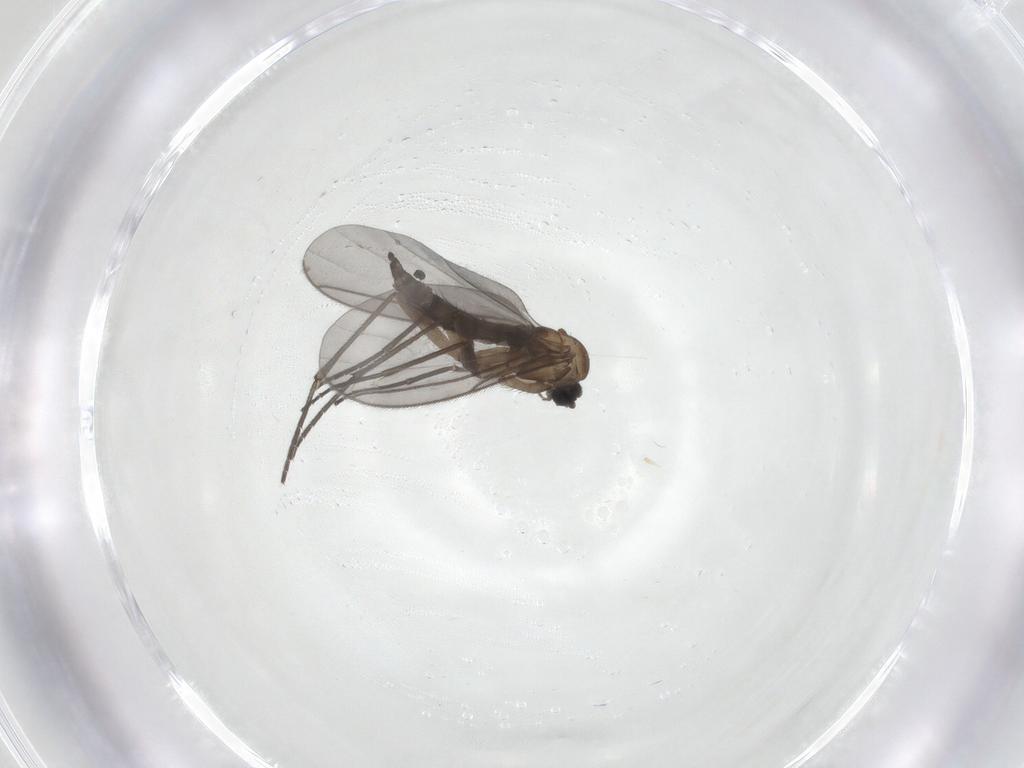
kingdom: Animalia
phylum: Arthropoda
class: Insecta
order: Diptera
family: Sciaridae
